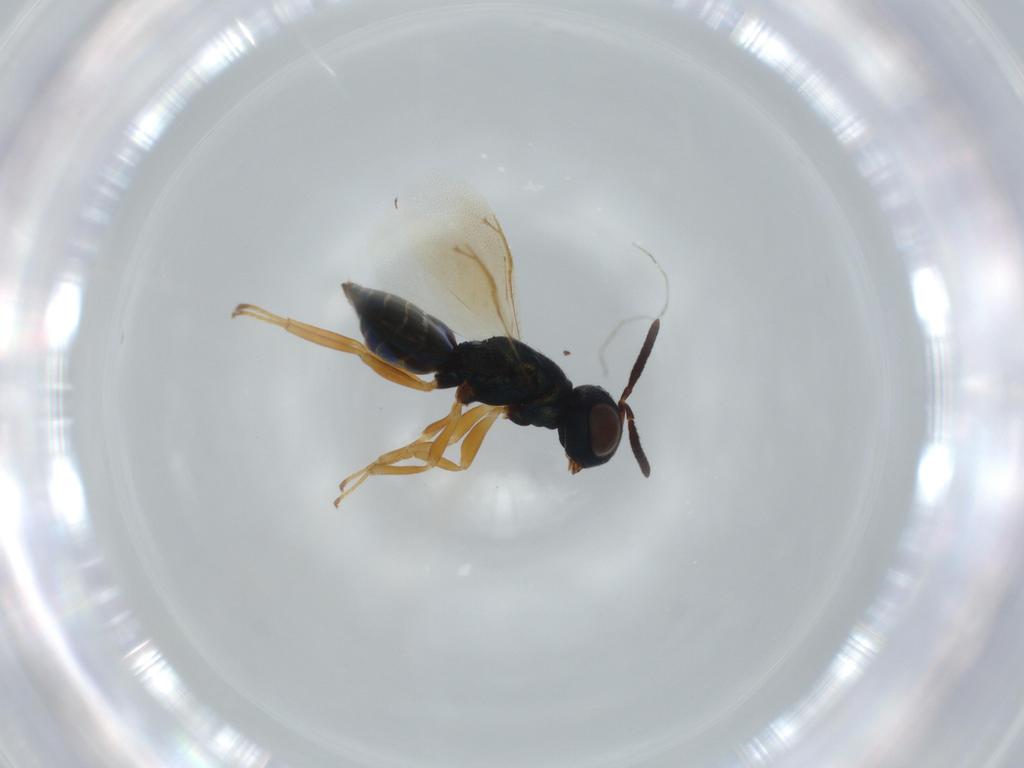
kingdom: Animalia
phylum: Arthropoda
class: Insecta
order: Hymenoptera
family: Pteromalidae
